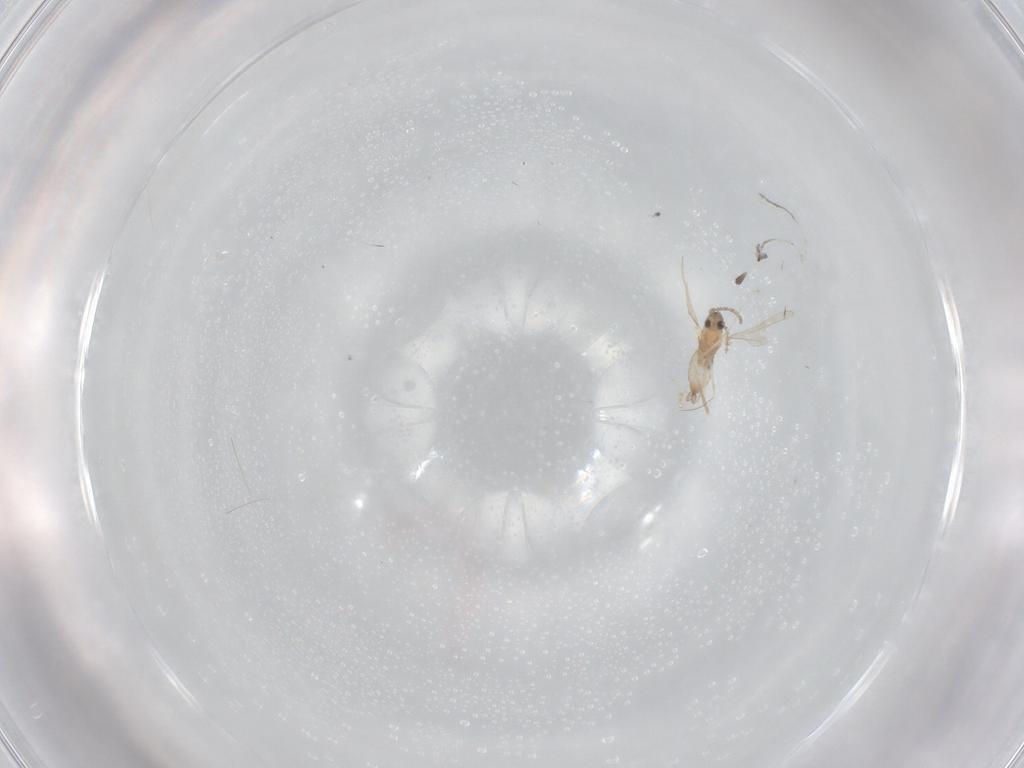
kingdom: Animalia
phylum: Arthropoda
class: Insecta
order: Diptera
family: Cecidomyiidae
